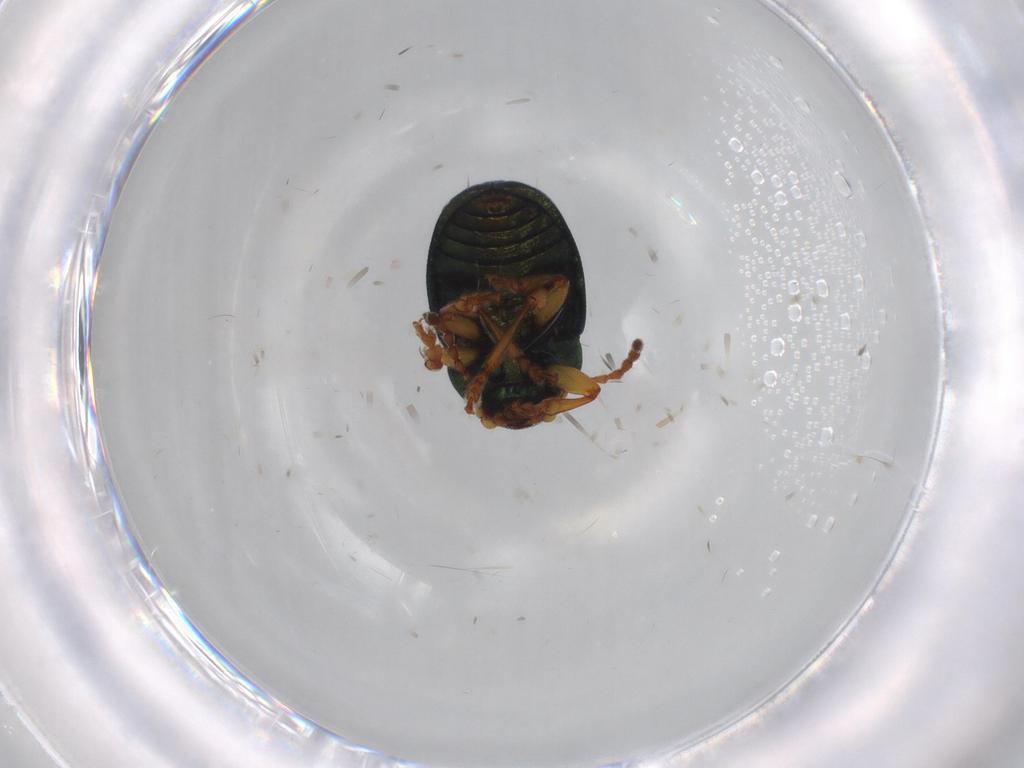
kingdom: Animalia
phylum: Arthropoda
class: Insecta
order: Coleoptera
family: Chrysomelidae
